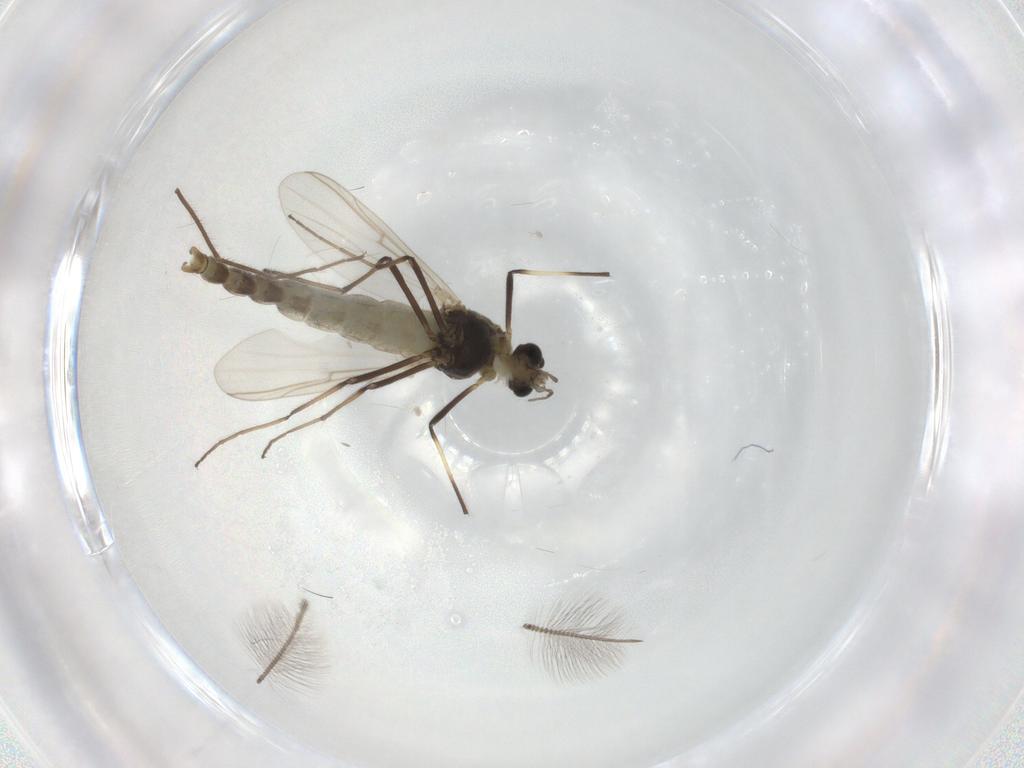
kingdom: Animalia
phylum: Arthropoda
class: Insecta
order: Diptera
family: Chironomidae
